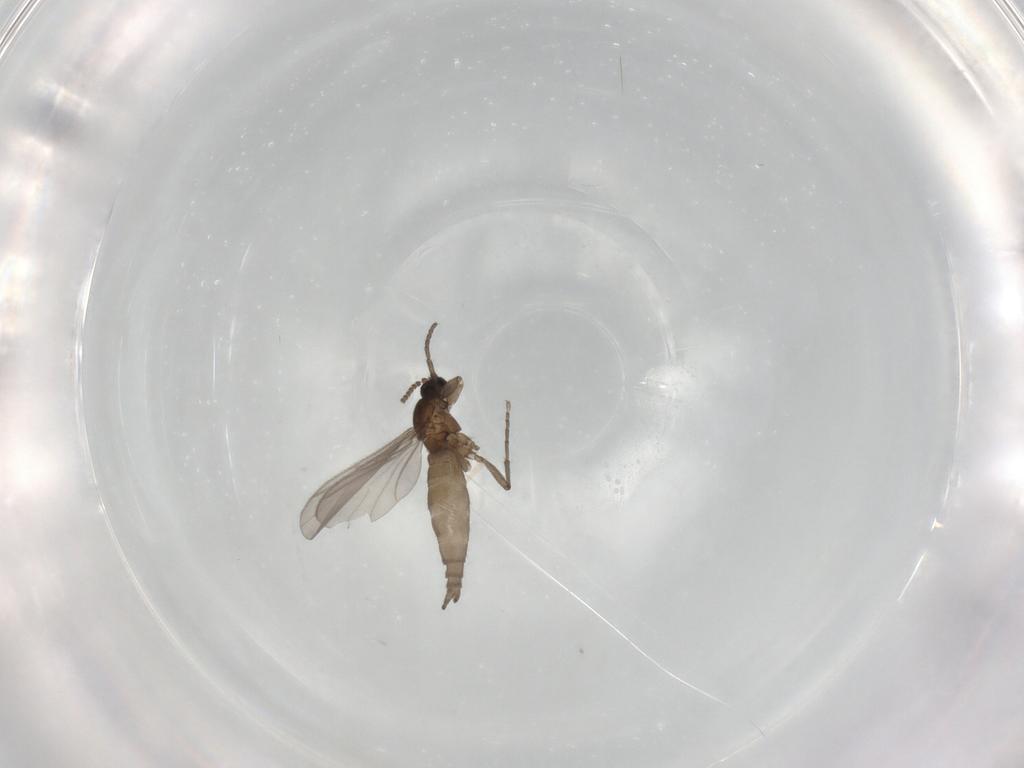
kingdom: Animalia
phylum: Arthropoda
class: Insecta
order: Diptera
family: Sciaridae
